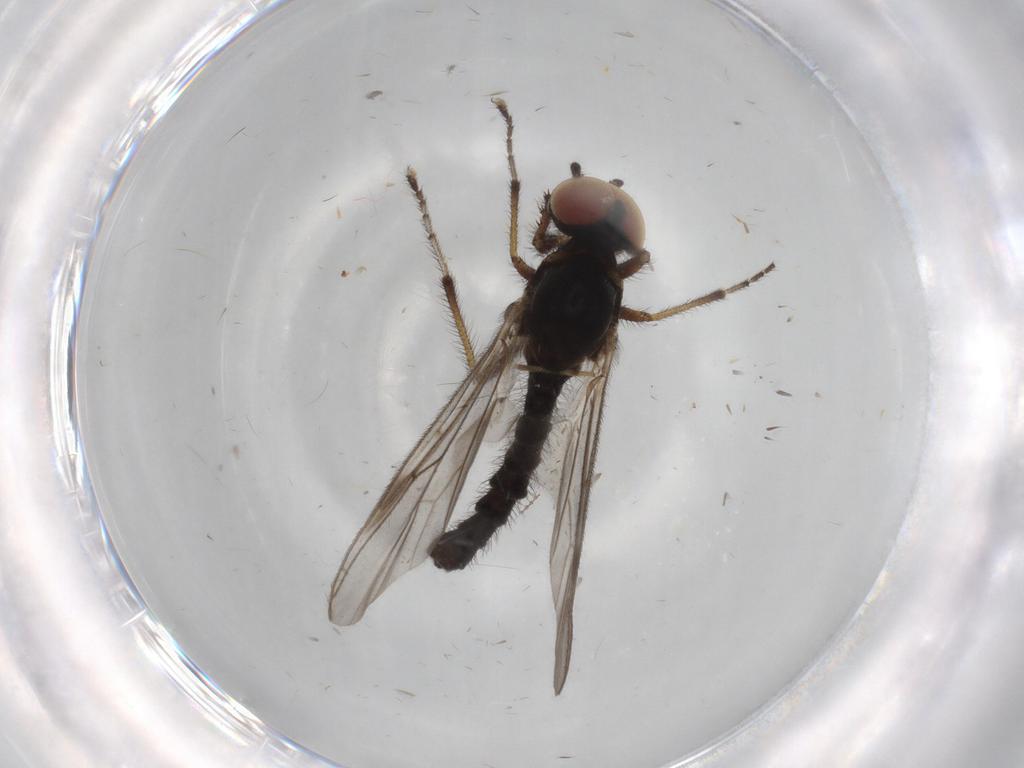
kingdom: Animalia
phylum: Arthropoda
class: Insecta
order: Diptera
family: Bibionidae
